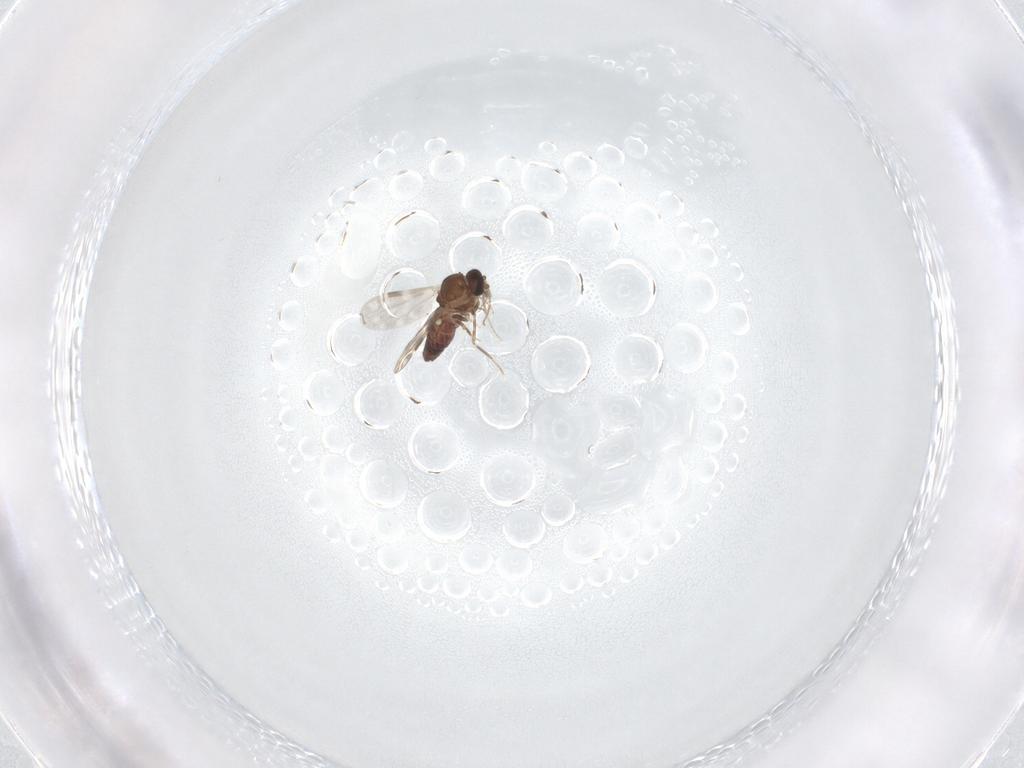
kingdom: Animalia
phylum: Arthropoda
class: Insecta
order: Diptera
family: Ceratopogonidae
